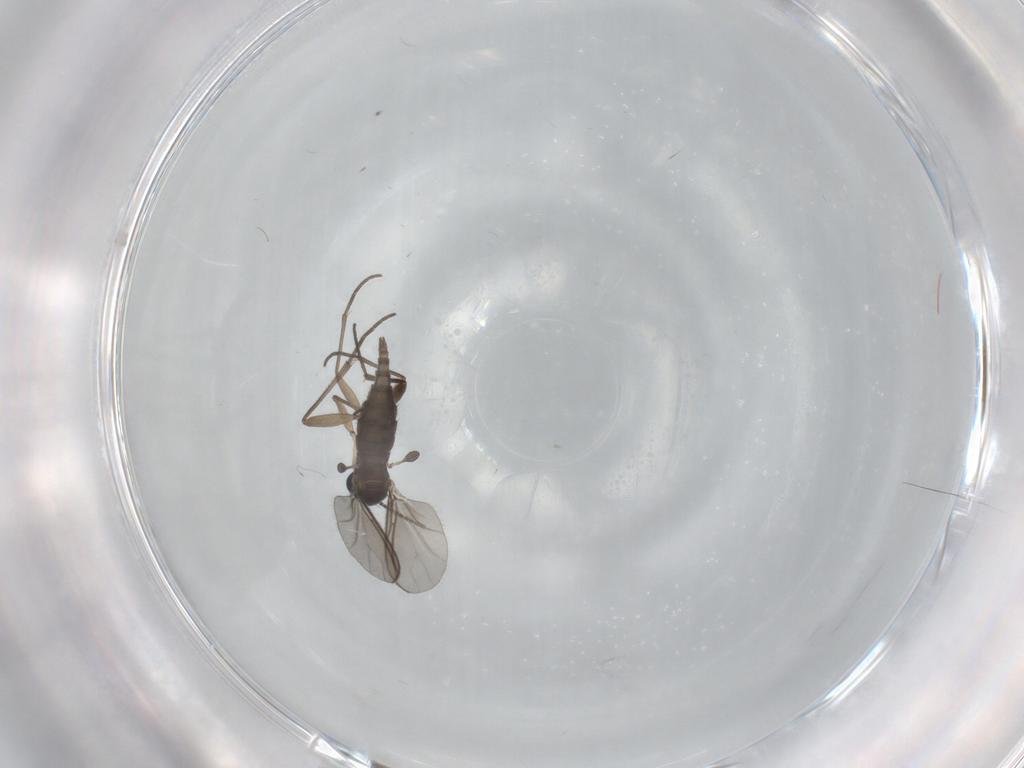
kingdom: Animalia
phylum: Arthropoda
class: Insecta
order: Diptera
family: Sciaridae
